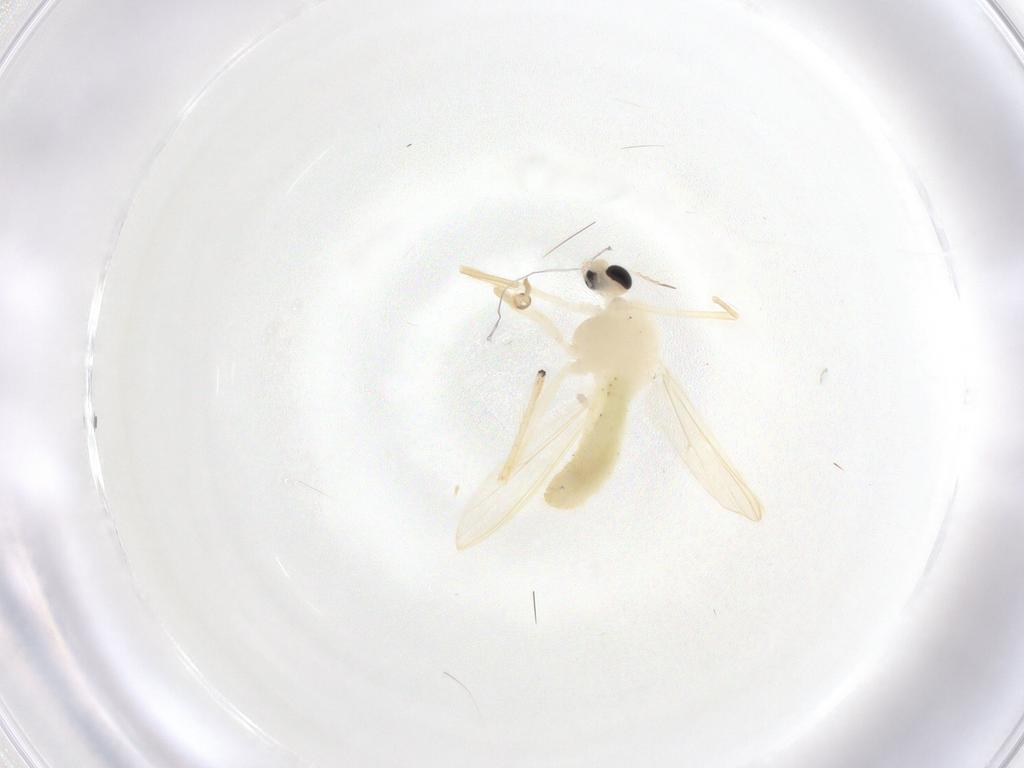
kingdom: Animalia
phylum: Arthropoda
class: Insecta
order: Diptera
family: Chironomidae
